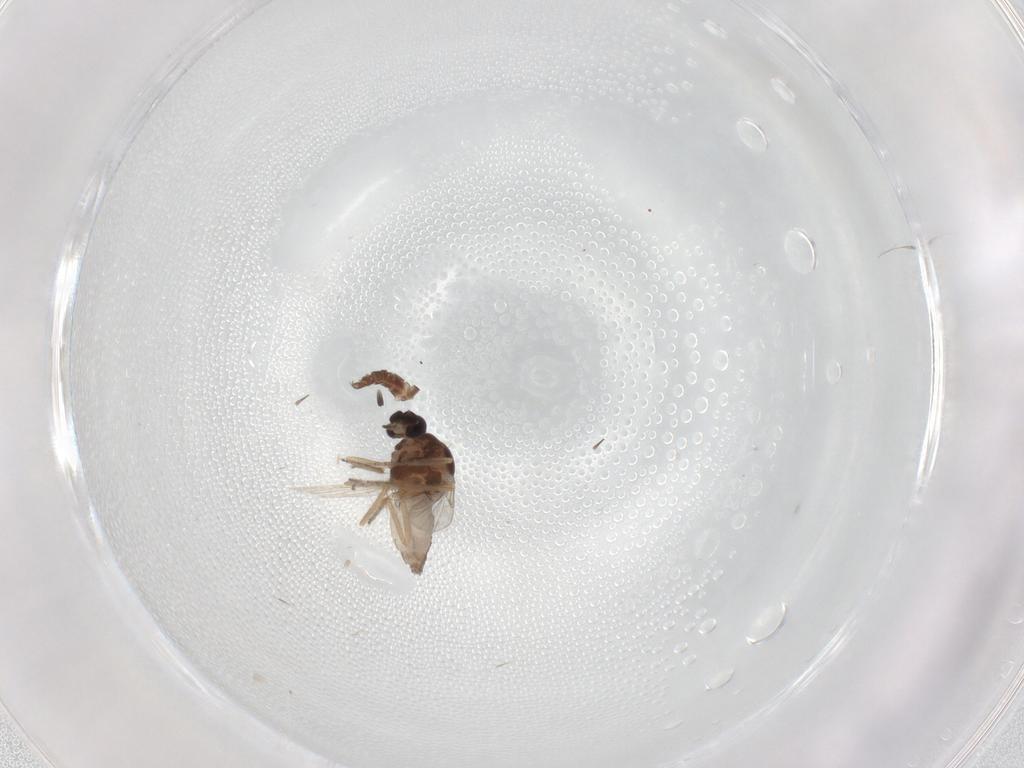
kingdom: Animalia
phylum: Arthropoda
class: Insecta
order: Diptera
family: Ceratopogonidae
